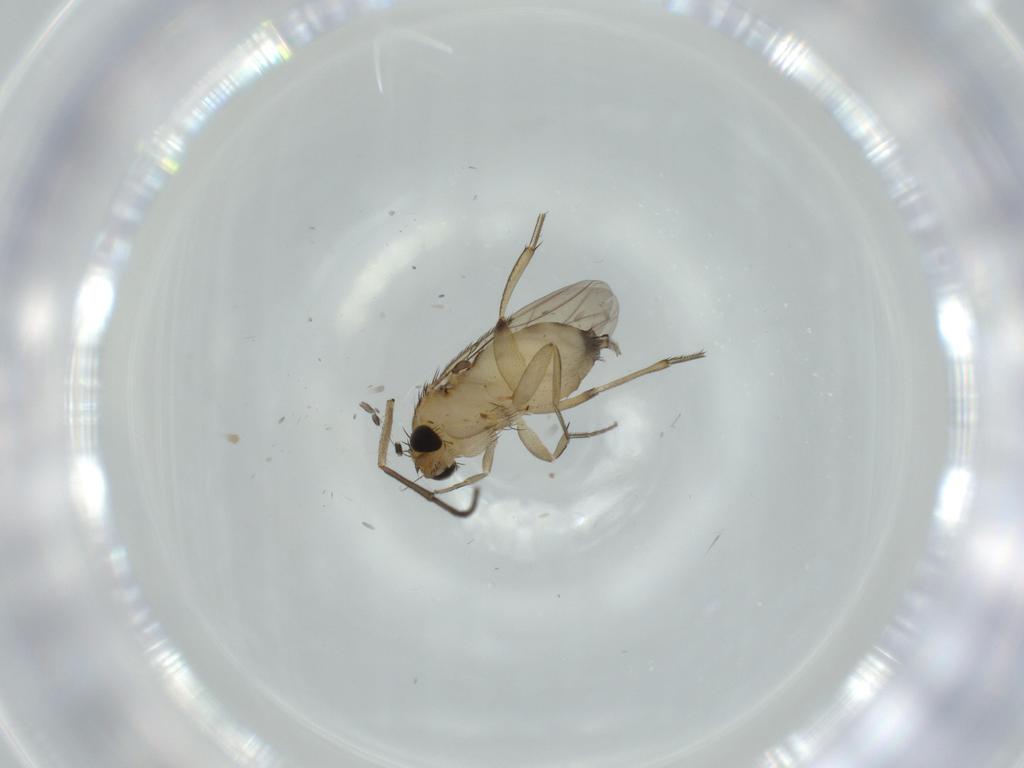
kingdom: Animalia
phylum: Arthropoda
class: Insecta
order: Diptera
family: Phoridae
